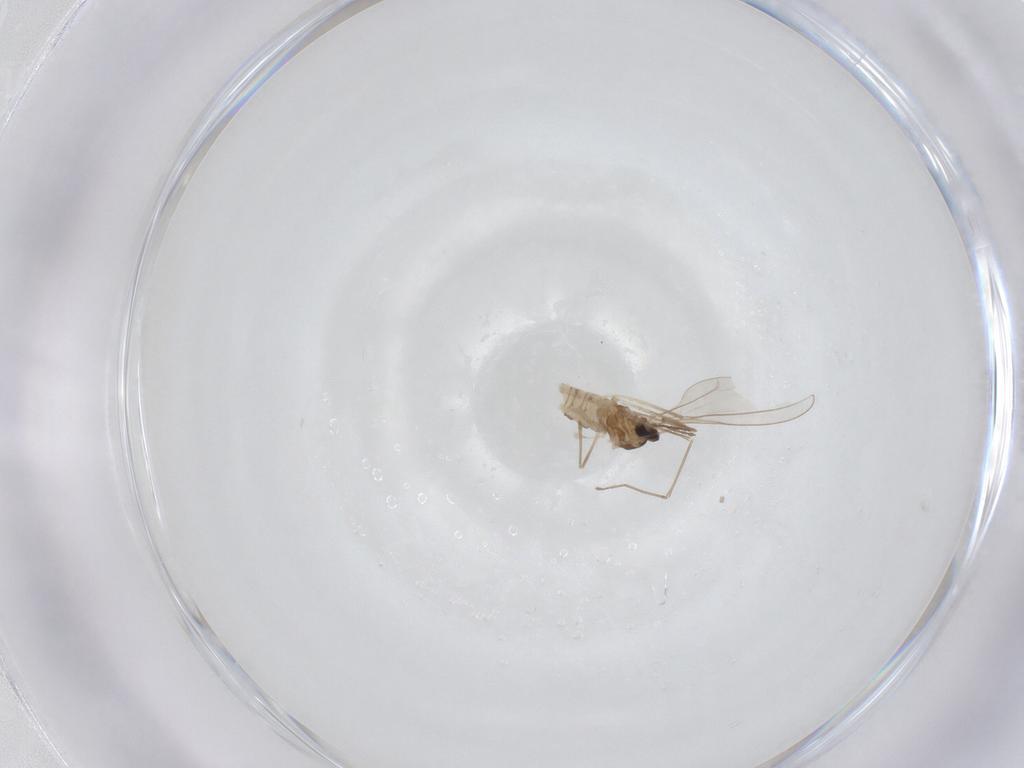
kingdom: Animalia
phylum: Arthropoda
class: Insecta
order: Diptera
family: Cecidomyiidae
